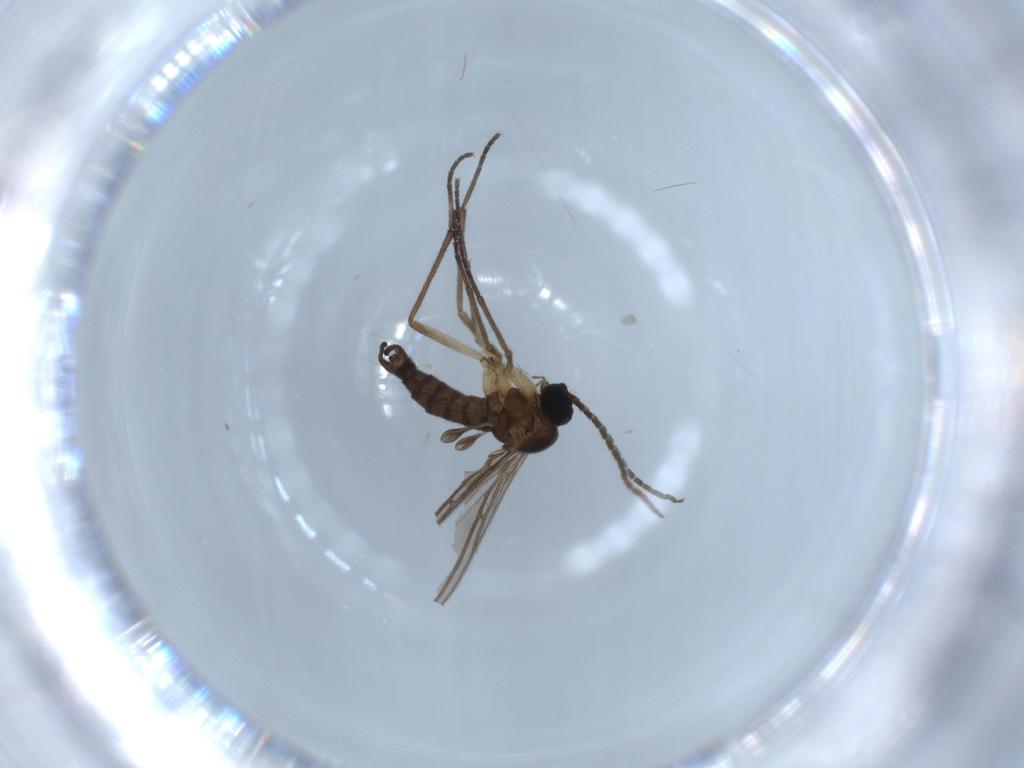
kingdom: Animalia
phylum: Arthropoda
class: Insecta
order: Diptera
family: Sciaridae
